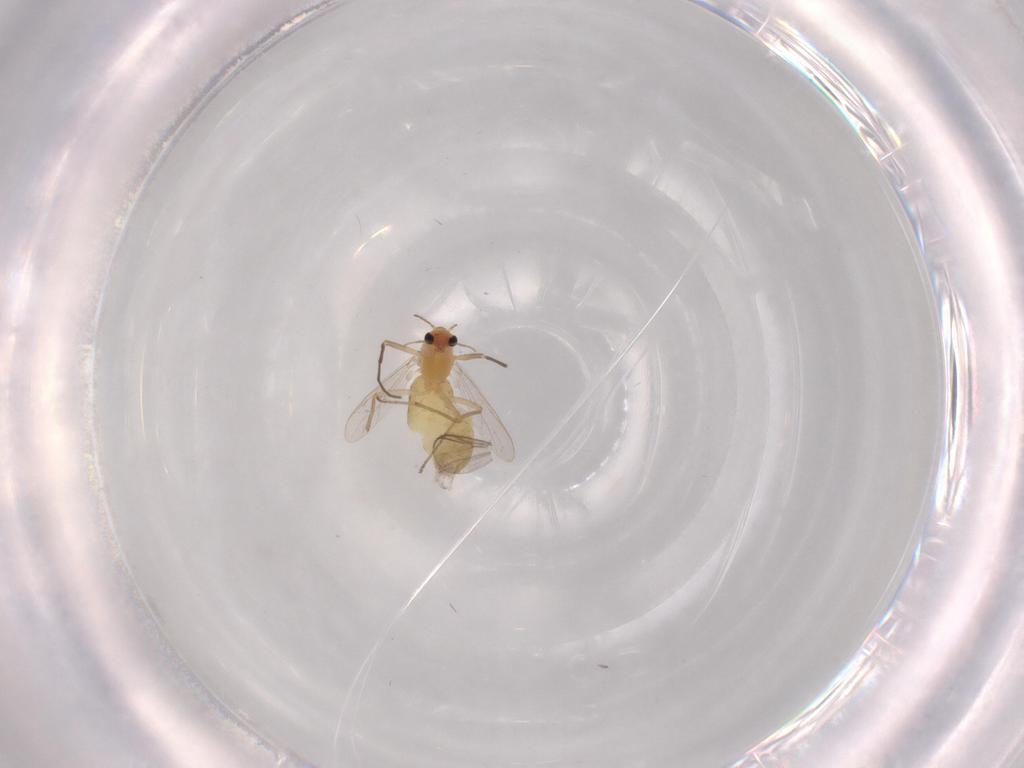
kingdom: Animalia
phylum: Arthropoda
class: Insecta
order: Diptera
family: Chironomidae
